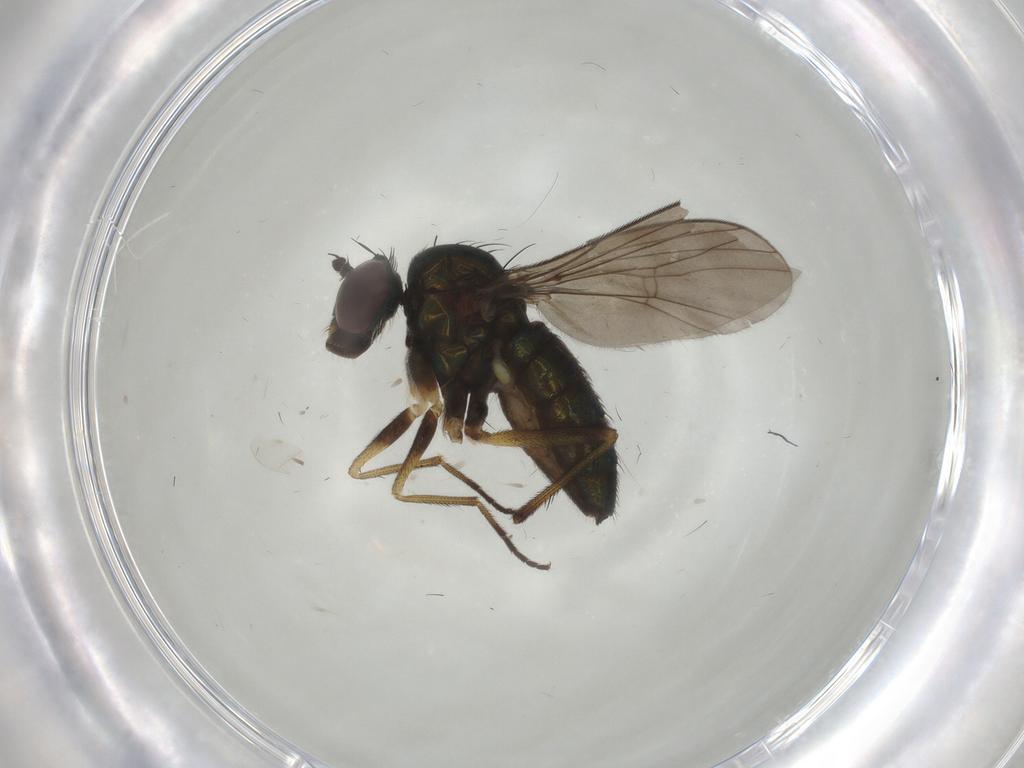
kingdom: Animalia
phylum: Arthropoda
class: Insecta
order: Diptera
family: Dolichopodidae
